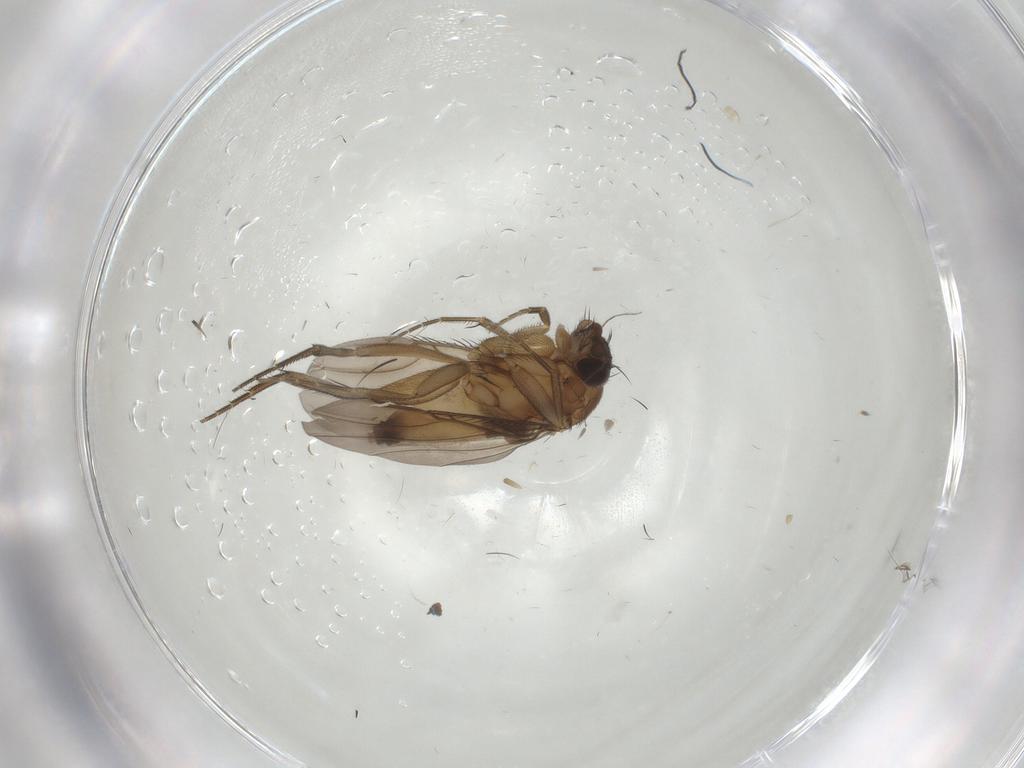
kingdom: Animalia
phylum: Arthropoda
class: Insecta
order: Diptera
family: Phoridae
